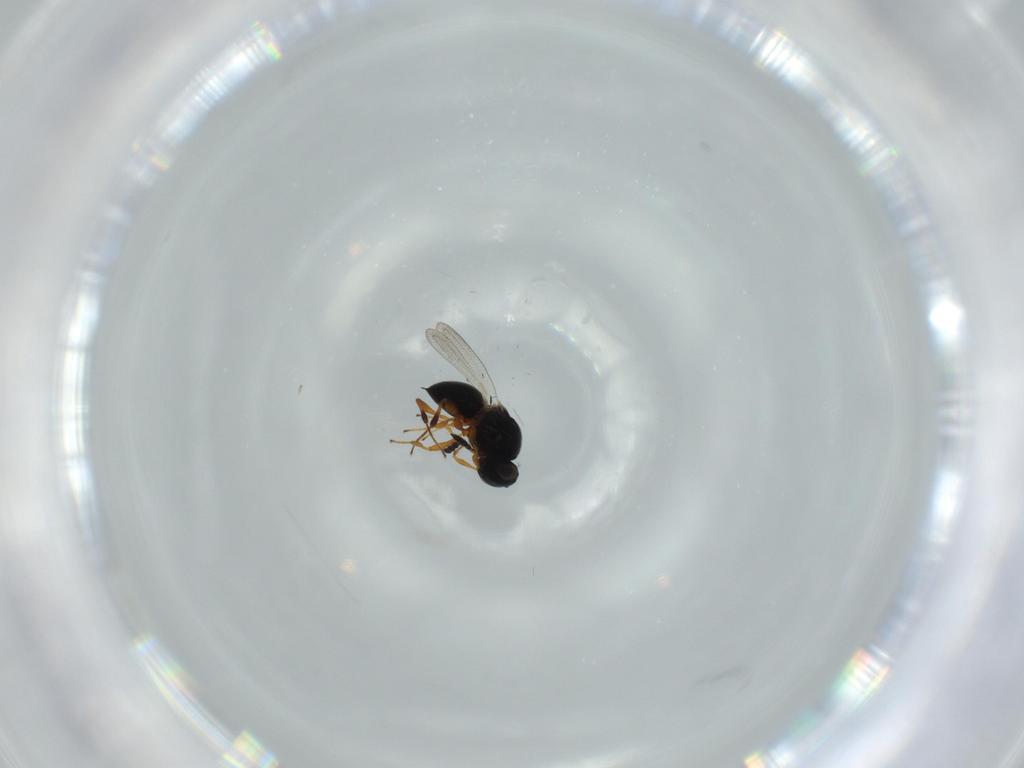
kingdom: Animalia
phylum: Arthropoda
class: Insecta
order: Hymenoptera
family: Platygastridae
